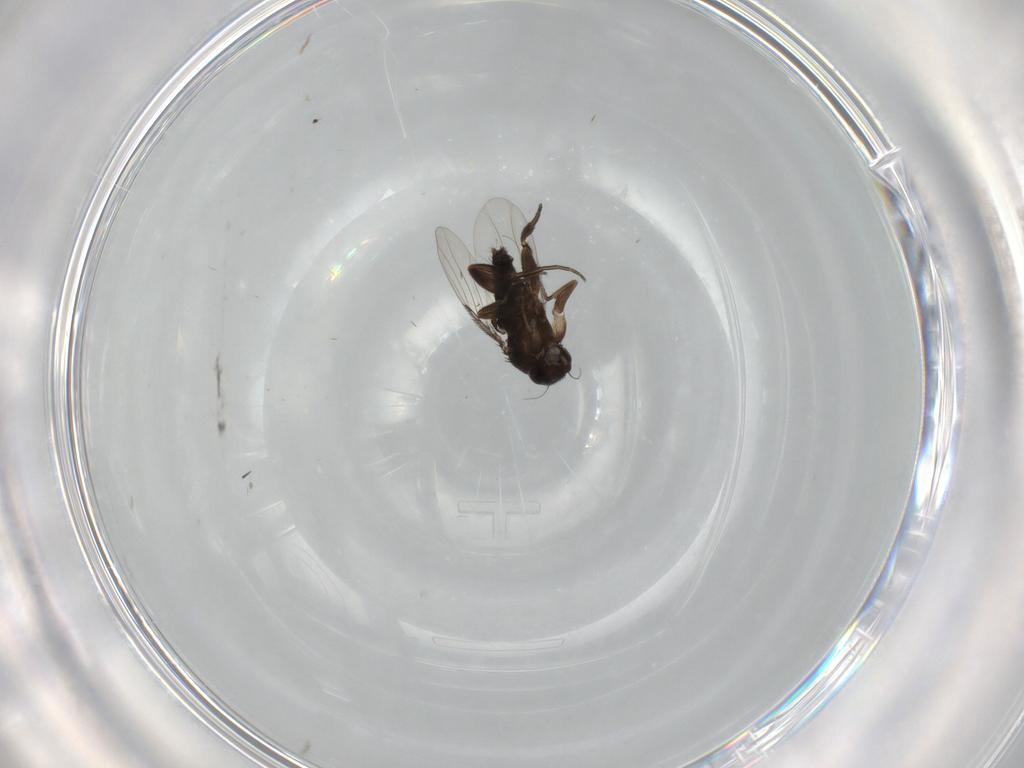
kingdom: Animalia
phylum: Arthropoda
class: Insecta
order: Diptera
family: Phoridae
